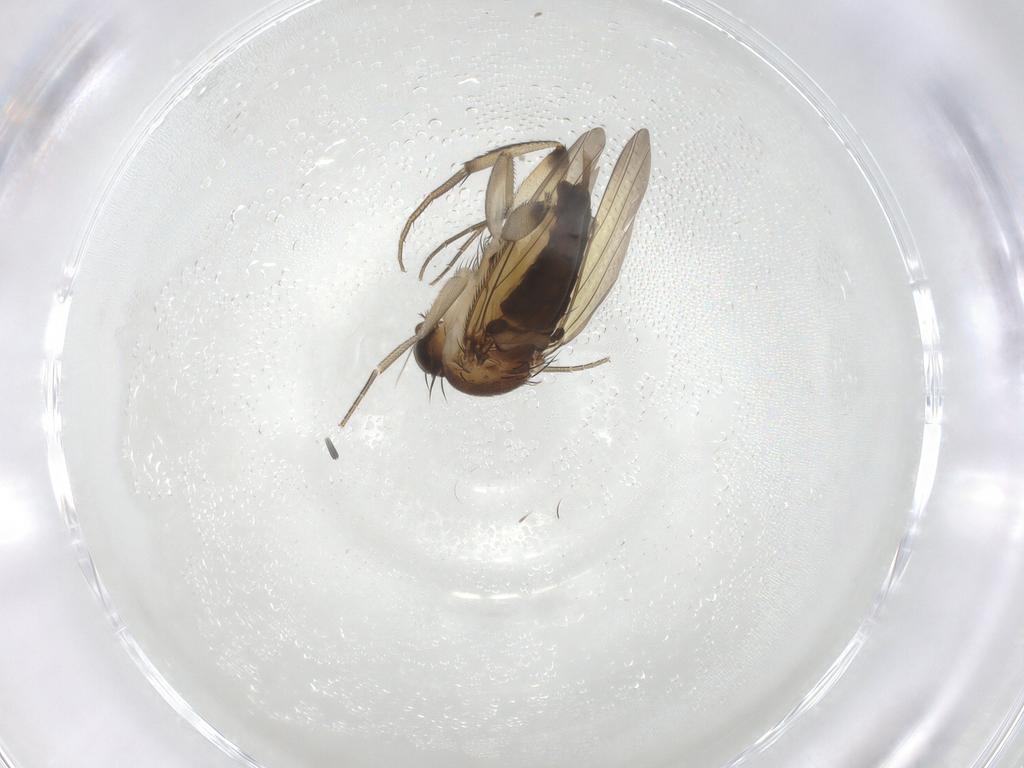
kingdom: Animalia
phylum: Arthropoda
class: Insecta
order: Diptera
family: Phoridae
